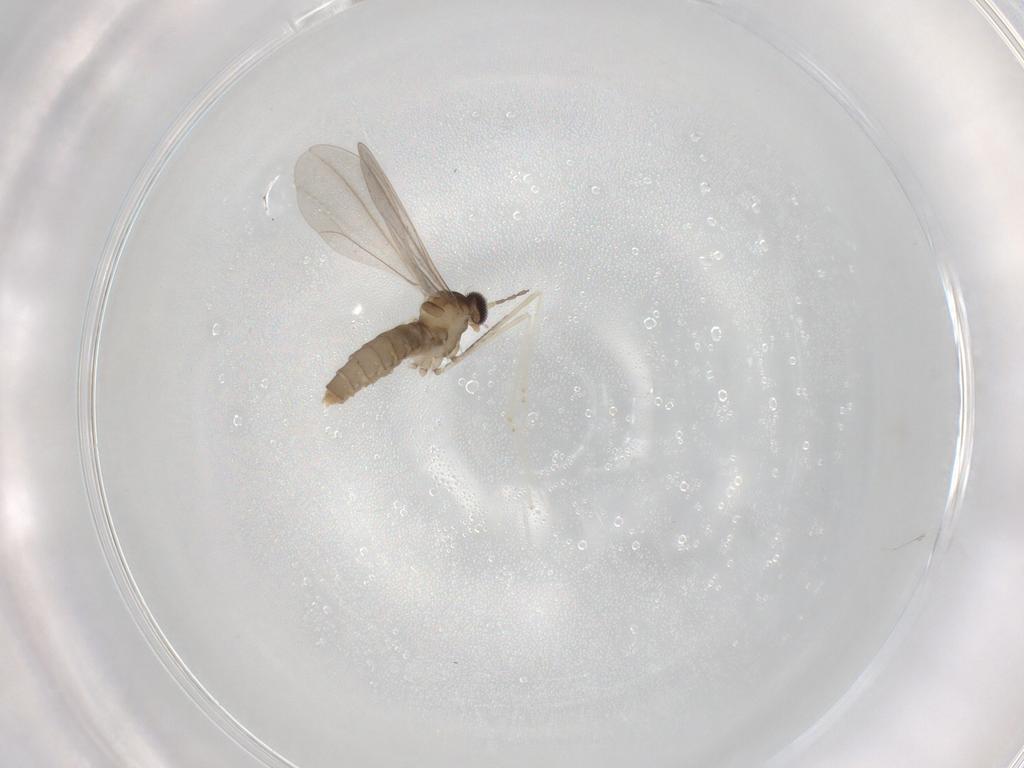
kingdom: Animalia
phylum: Arthropoda
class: Insecta
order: Diptera
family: Cecidomyiidae
